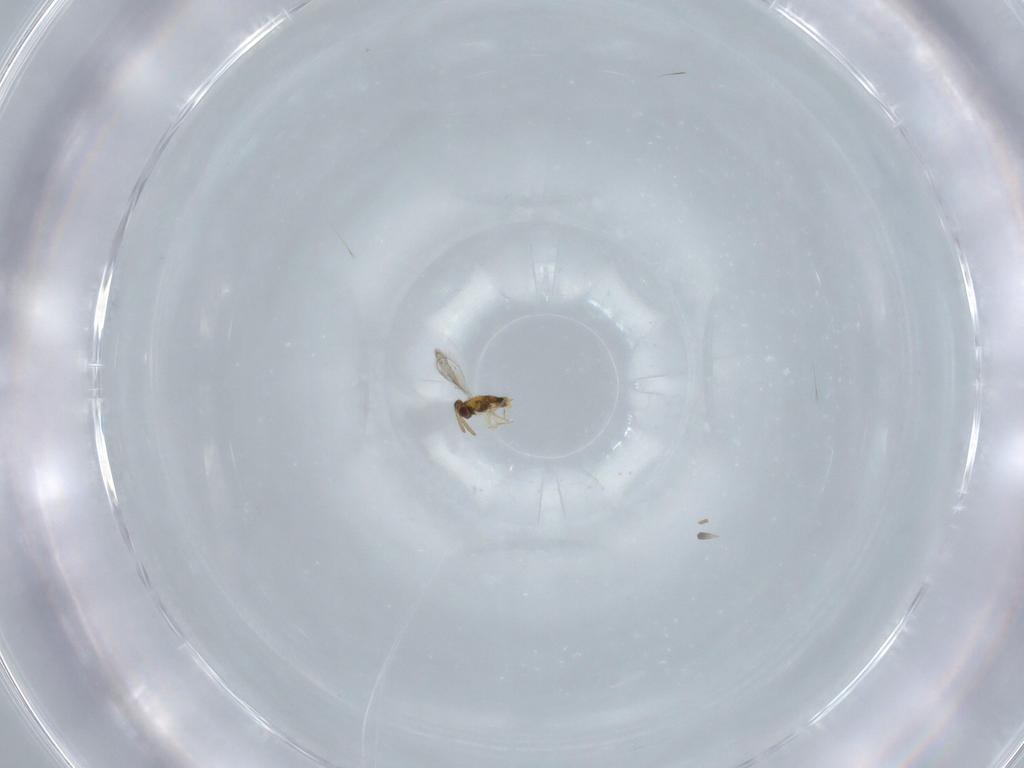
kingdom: Animalia
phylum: Arthropoda
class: Insecta
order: Hymenoptera
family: Aphelinidae
